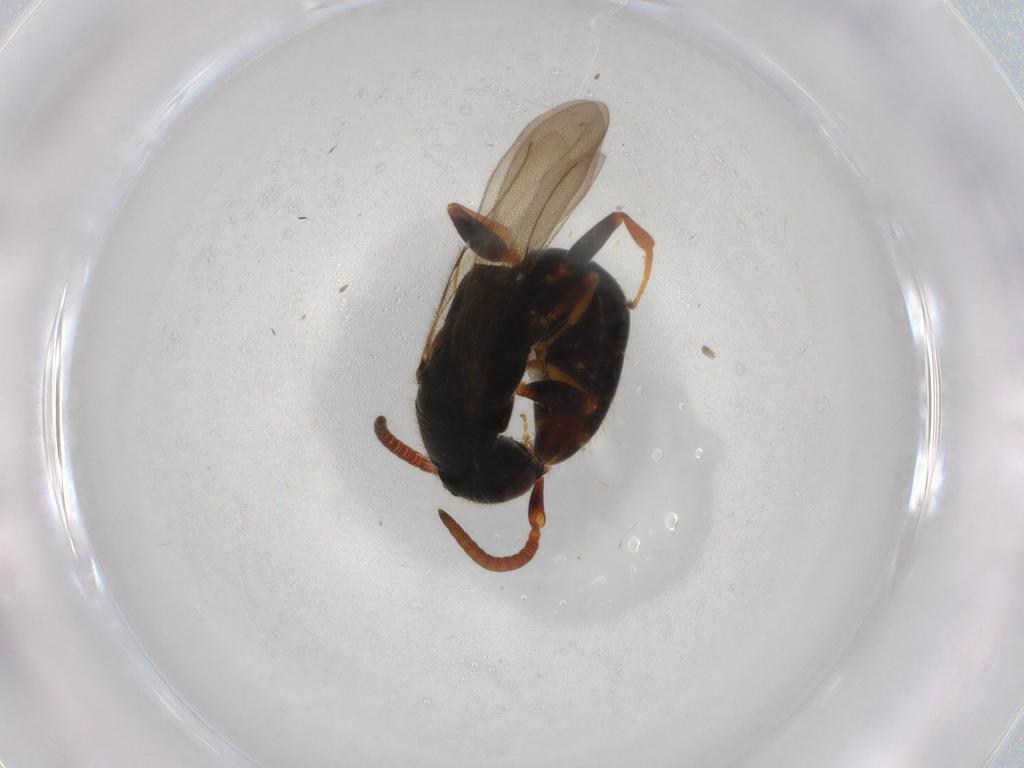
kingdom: Animalia
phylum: Arthropoda
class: Insecta
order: Hymenoptera
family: Bethylidae
